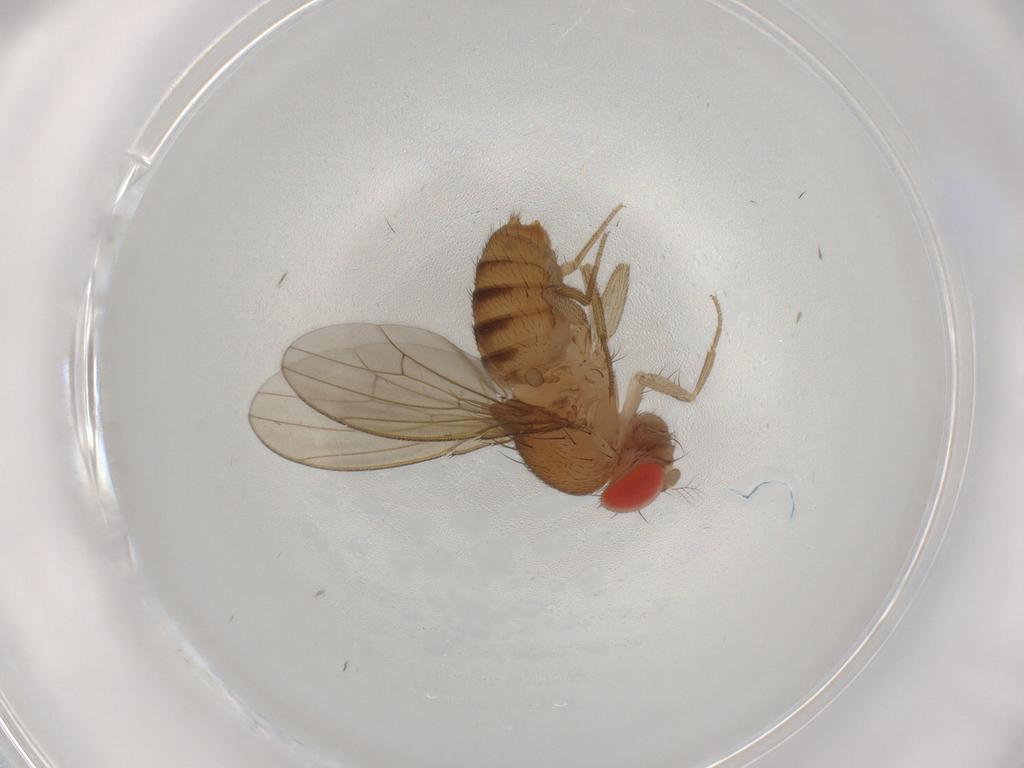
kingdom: Animalia
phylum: Arthropoda
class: Insecta
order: Diptera
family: Drosophilidae
